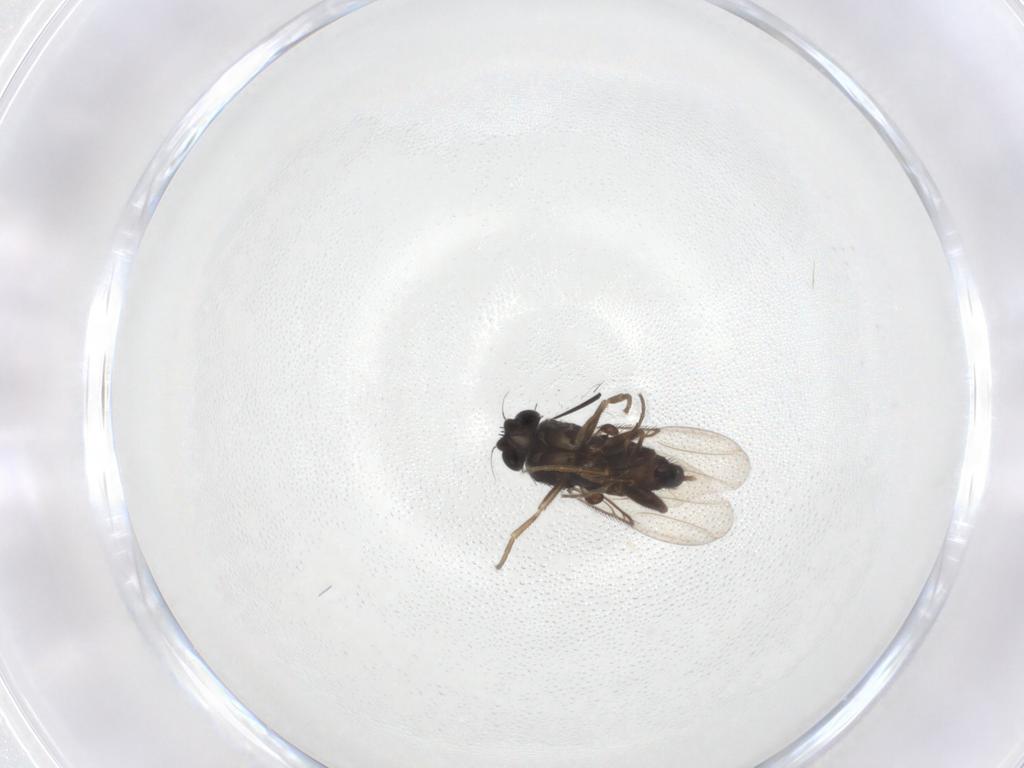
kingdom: Animalia
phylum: Arthropoda
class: Insecta
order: Diptera
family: Phoridae
